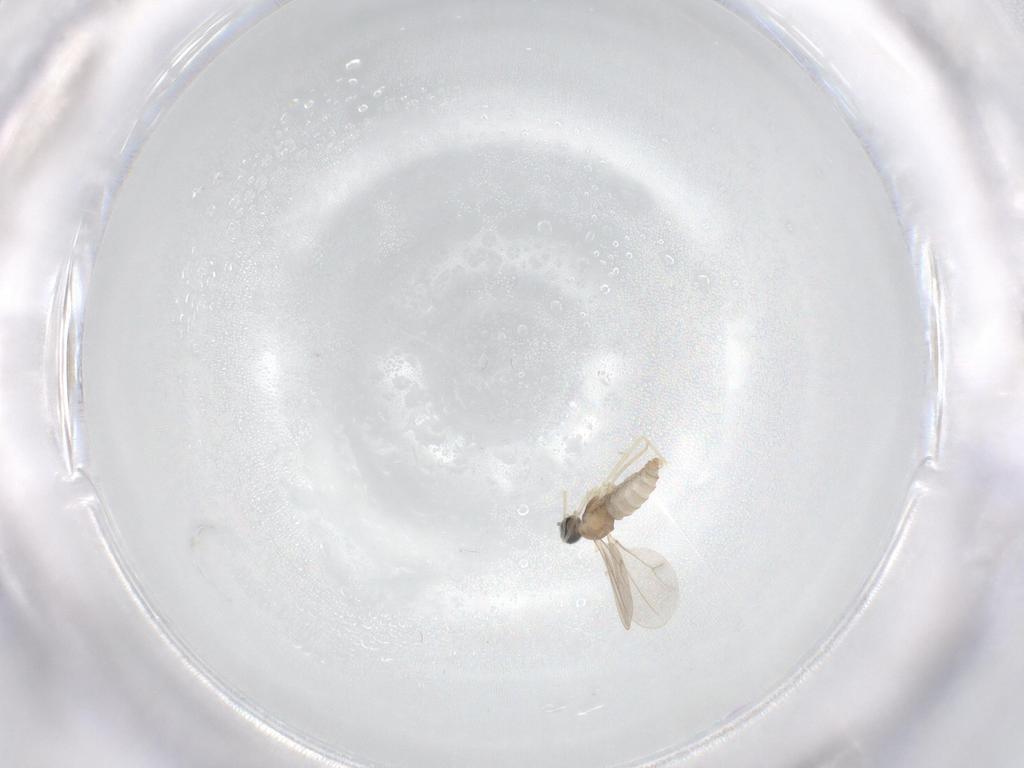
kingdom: Animalia
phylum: Arthropoda
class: Insecta
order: Diptera
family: Cecidomyiidae
